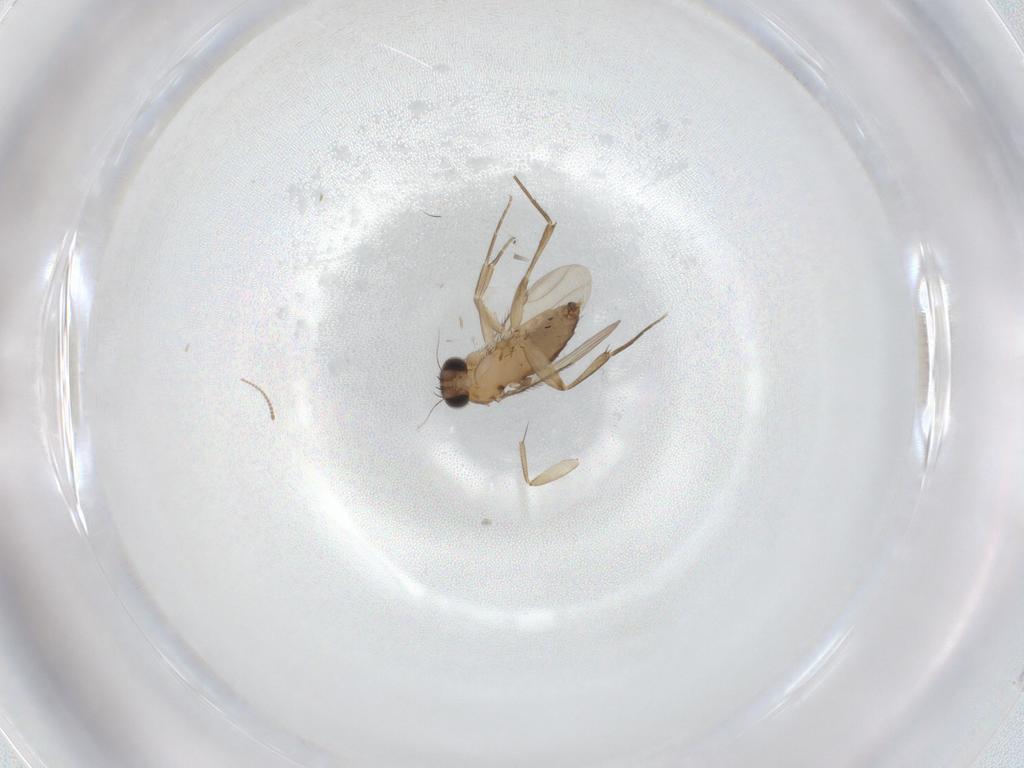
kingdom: Animalia
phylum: Arthropoda
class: Insecta
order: Diptera
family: Phoridae
